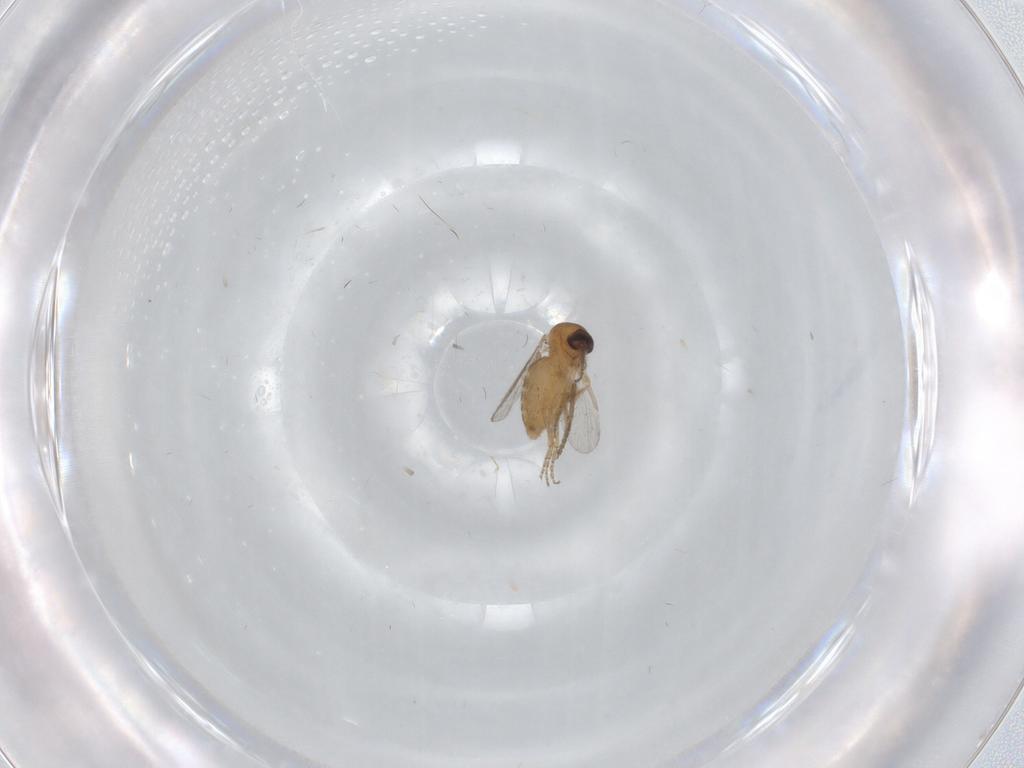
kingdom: Animalia
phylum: Arthropoda
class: Insecta
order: Diptera
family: Ceratopogonidae
